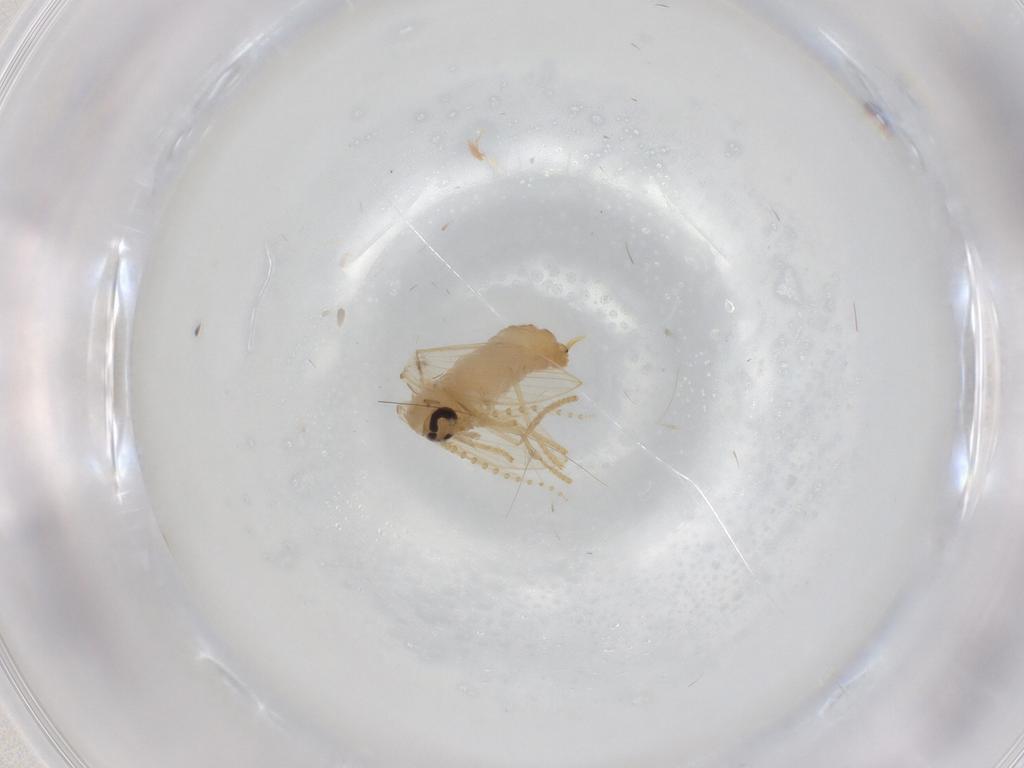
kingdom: Animalia
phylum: Arthropoda
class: Insecta
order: Diptera
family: Psychodidae
